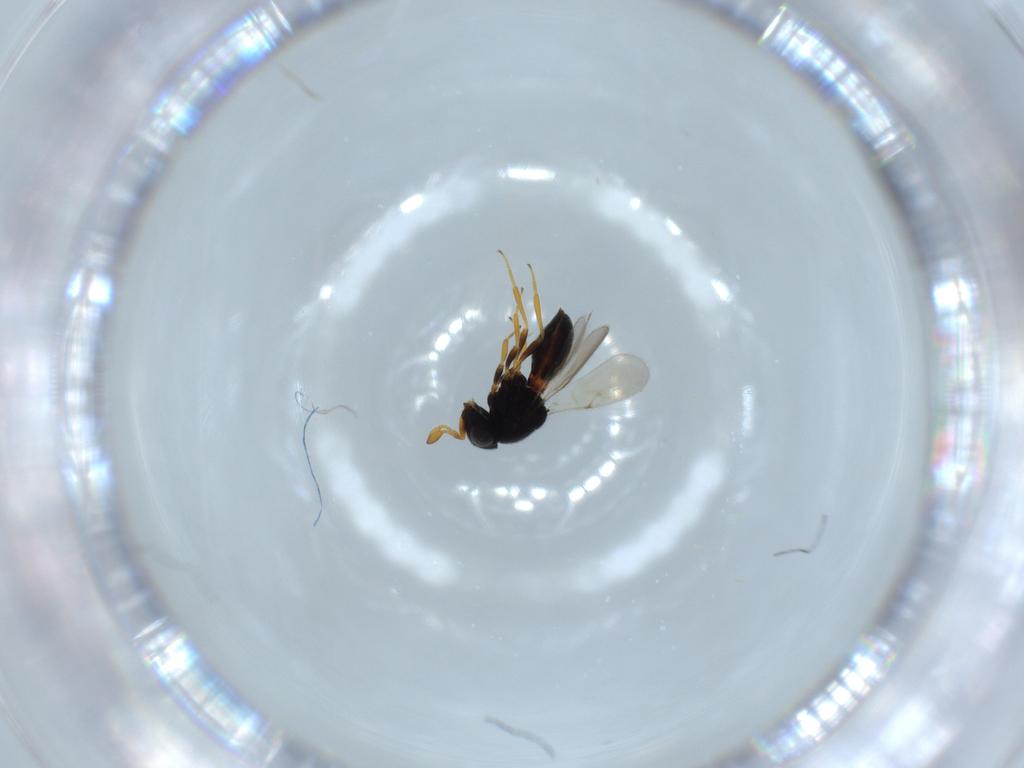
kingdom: Animalia
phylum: Arthropoda
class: Insecta
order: Hymenoptera
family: Scelionidae
